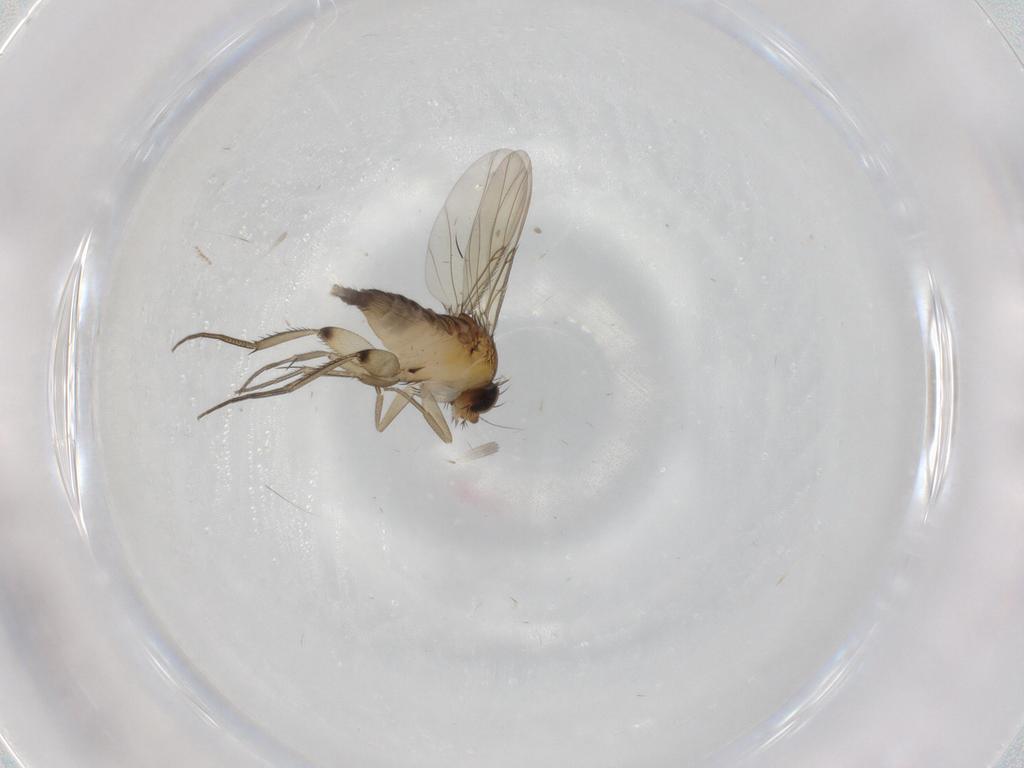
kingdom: Animalia
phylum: Arthropoda
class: Insecta
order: Diptera
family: Phoridae
